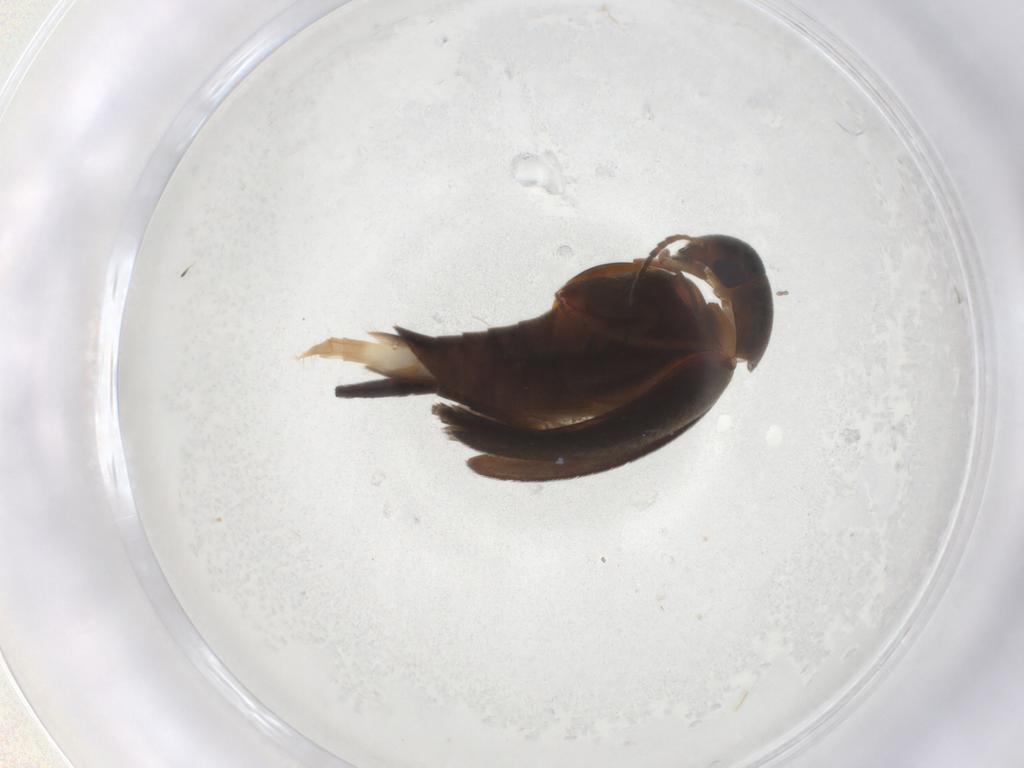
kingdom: Animalia
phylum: Arthropoda
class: Insecta
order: Coleoptera
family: Mordellidae
